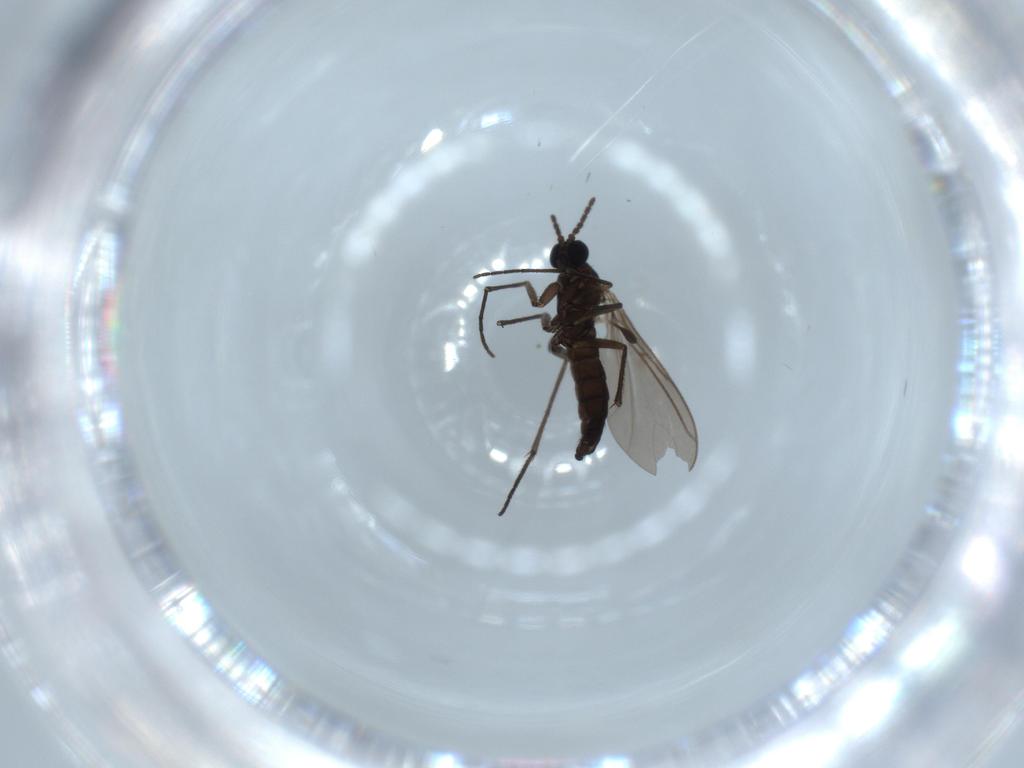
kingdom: Animalia
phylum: Arthropoda
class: Insecta
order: Diptera
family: Sciaridae
